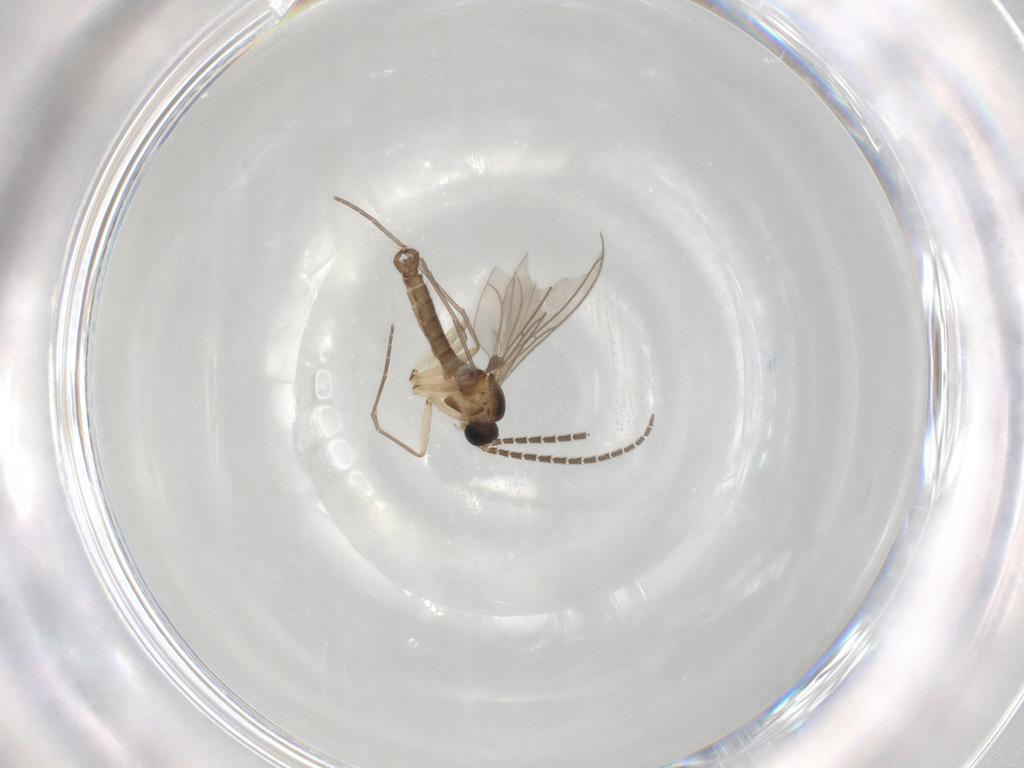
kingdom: Animalia
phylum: Arthropoda
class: Insecta
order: Diptera
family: Sciaridae
